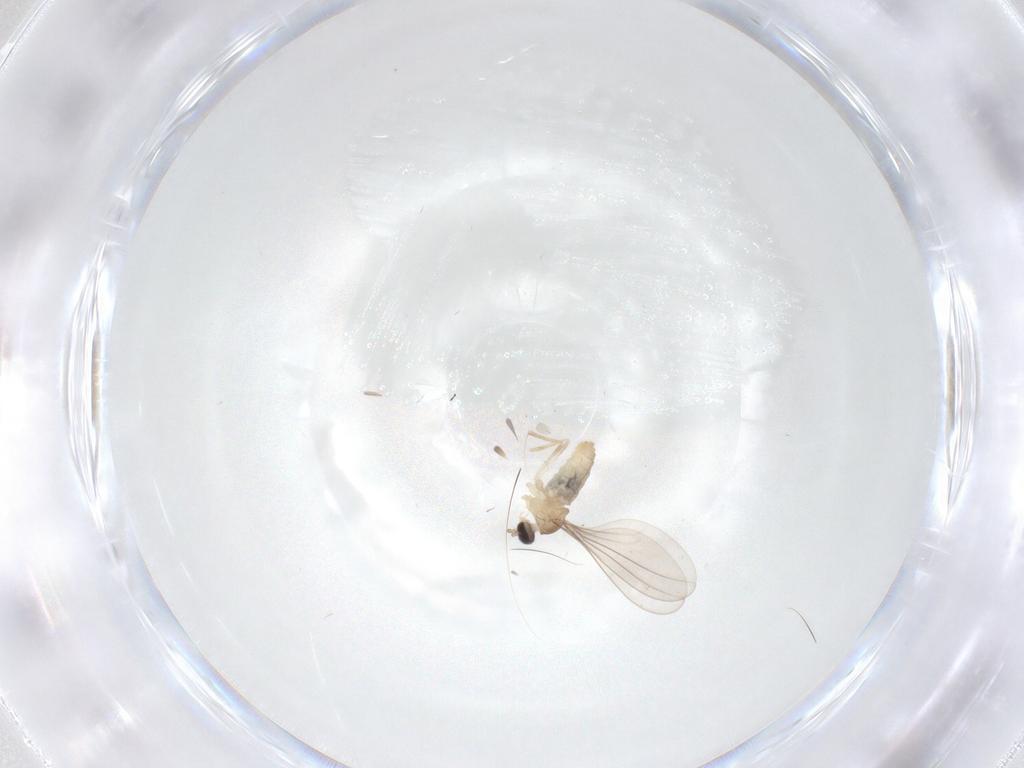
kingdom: Animalia
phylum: Arthropoda
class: Insecta
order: Diptera
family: Cecidomyiidae
